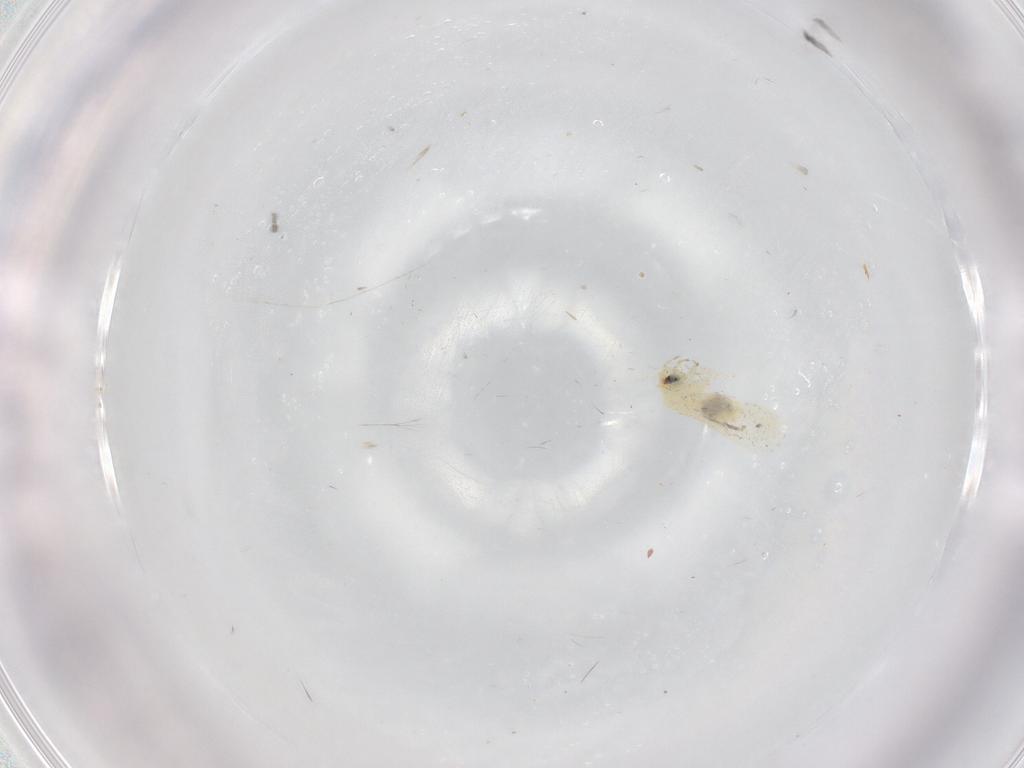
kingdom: Animalia
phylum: Arthropoda
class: Insecta
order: Hemiptera
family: Aleyrodidae
